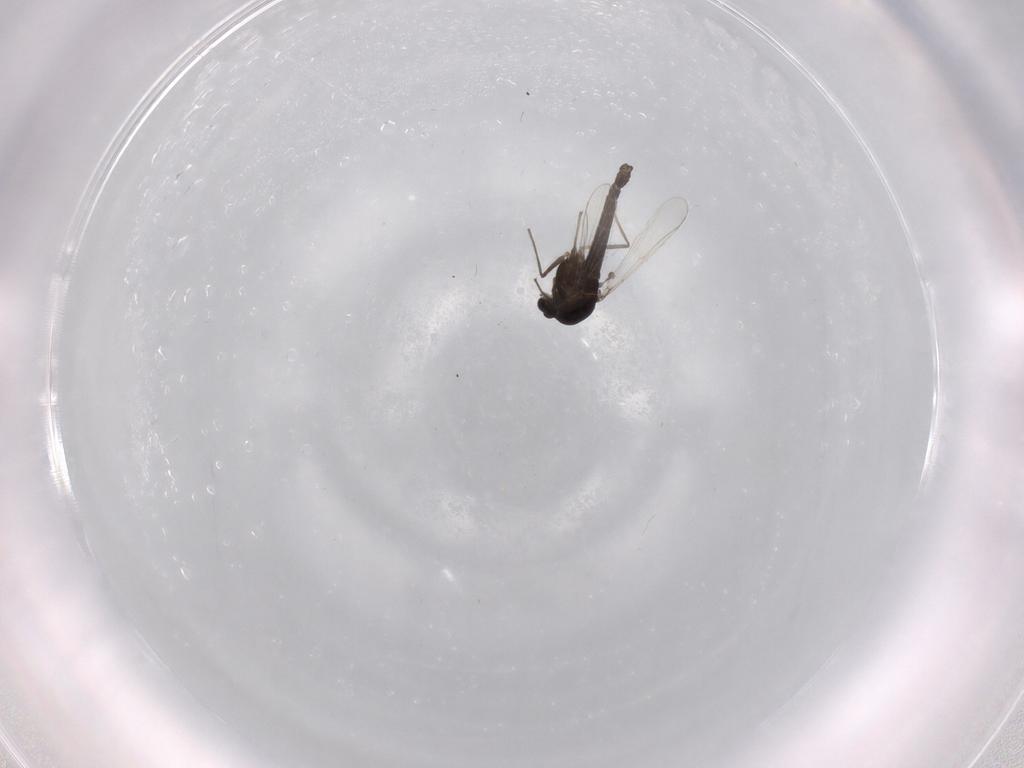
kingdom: Animalia
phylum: Arthropoda
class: Insecta
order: Diptera
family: Chironomidae
